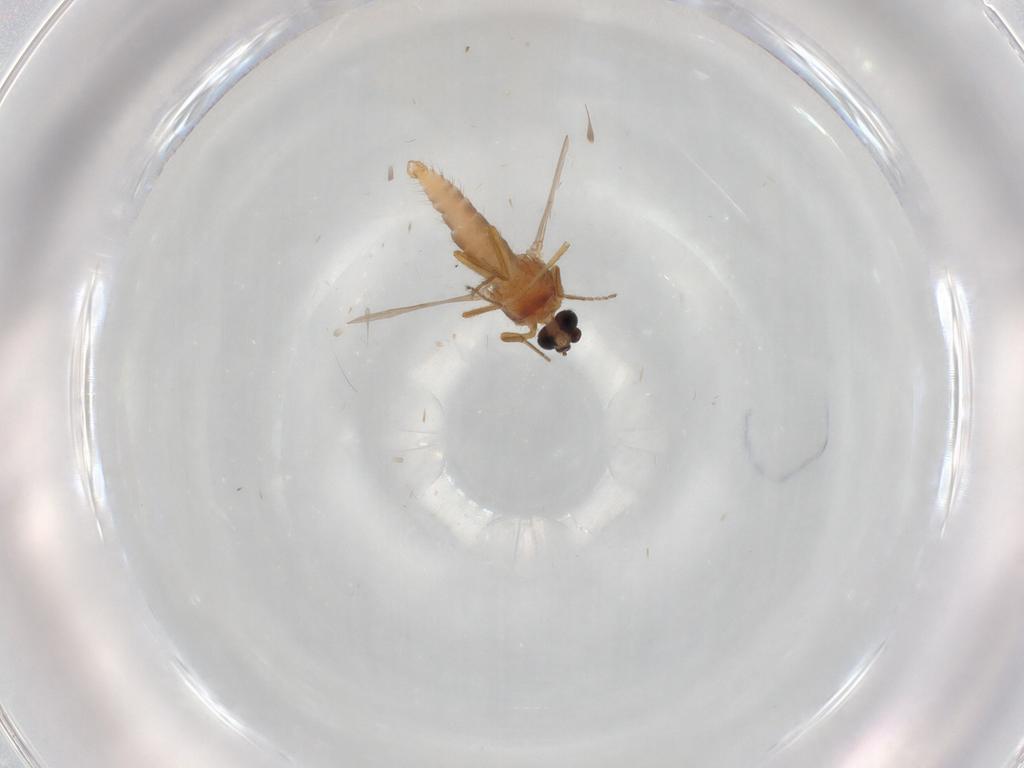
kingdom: Animalia
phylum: Arthropoda
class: Insecta
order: Diptera
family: Ceratopogonidae
